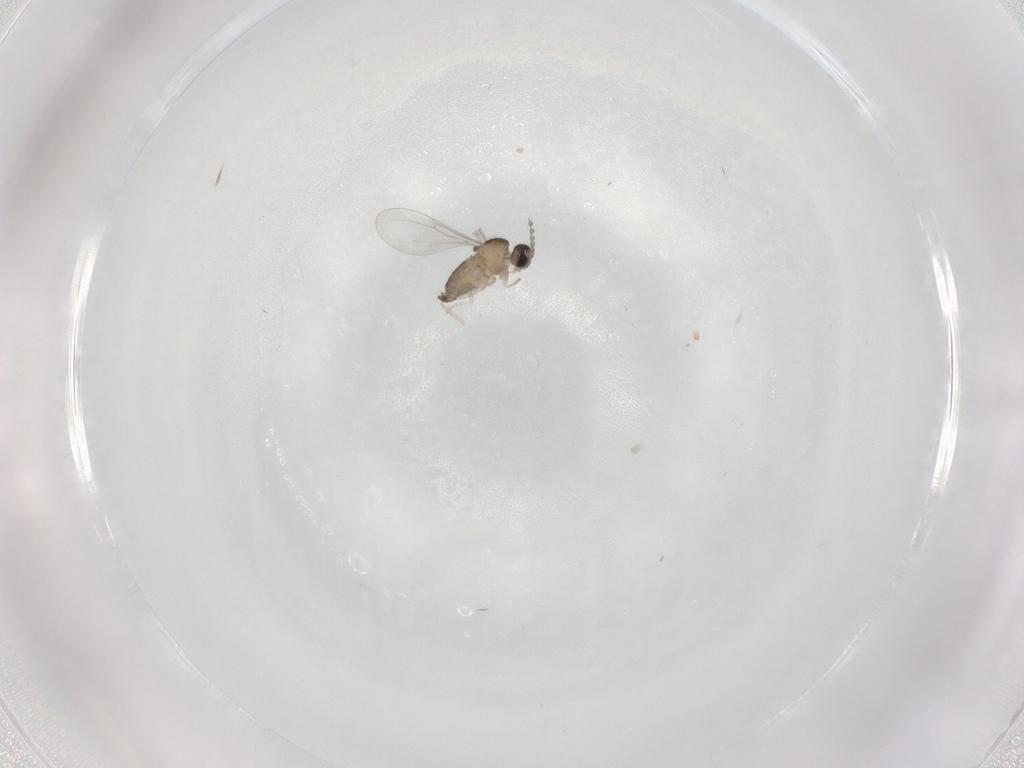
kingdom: Animalia
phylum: Arthropoda
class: Insecta
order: Diptera
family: Cecidomyiidae
